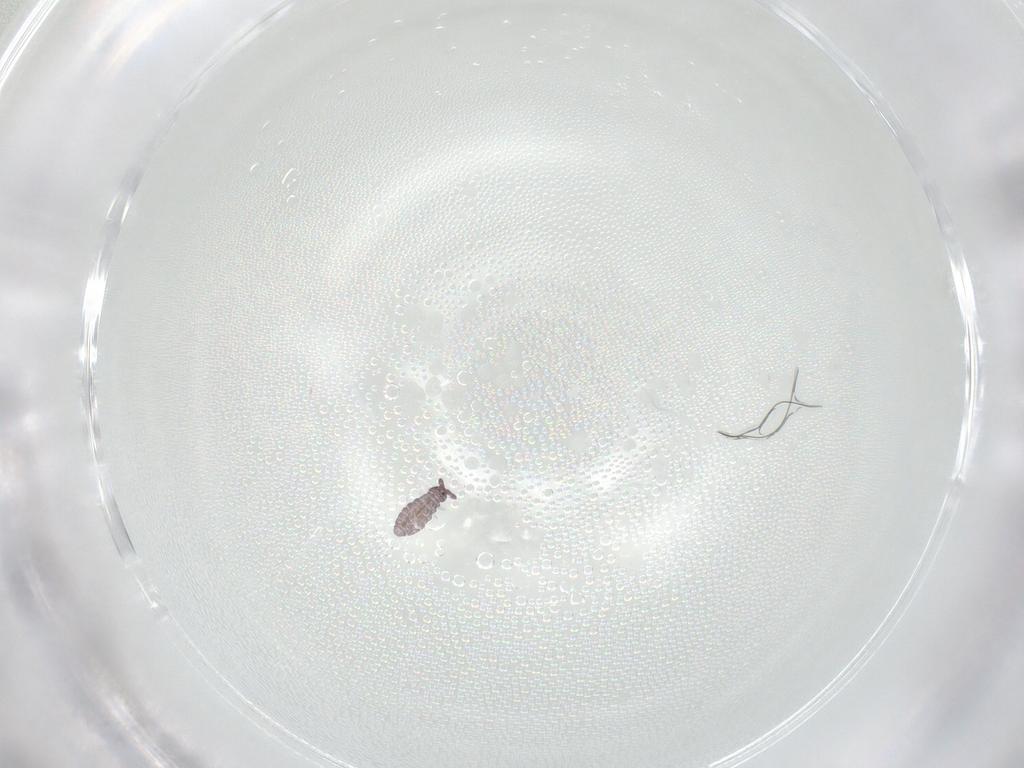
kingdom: Animalia
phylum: Arthropoda
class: Collembola
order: Poduromorpha
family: Hypogastruridae
